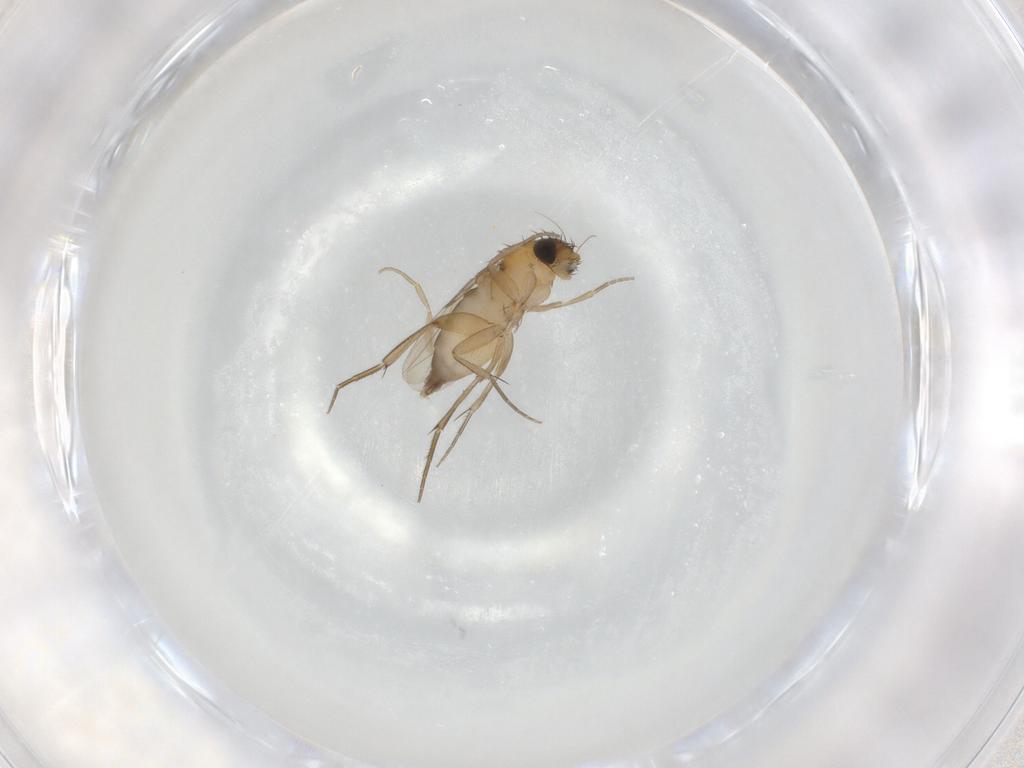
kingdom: Animalia
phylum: Arthropoda
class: Insecta
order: Diptera
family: Phoridae
